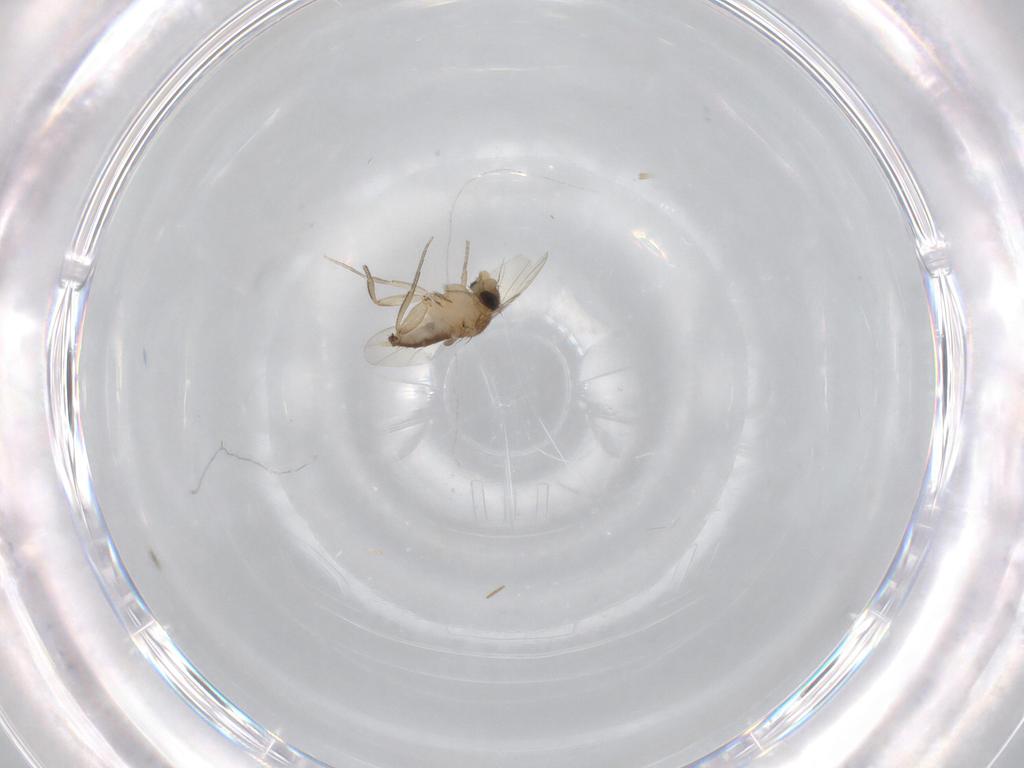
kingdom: Animalia
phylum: Arthropoda
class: Insecta
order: Diptera
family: Phoridae
